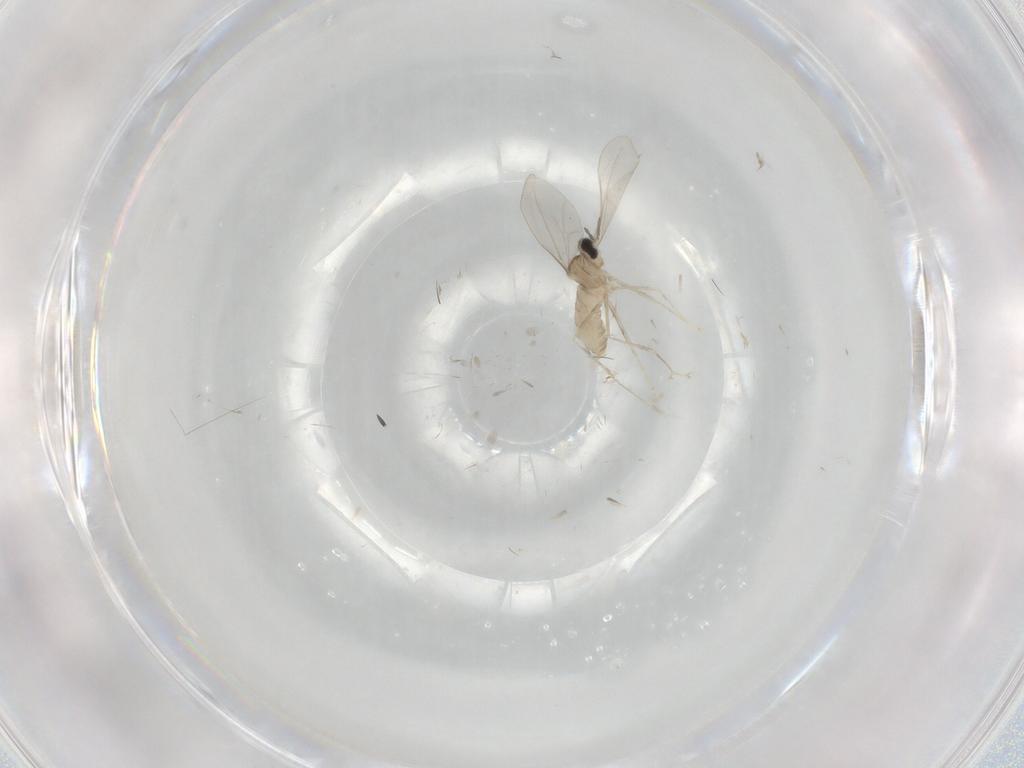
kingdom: Animalia
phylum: Arthropoda
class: Insecta
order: Diptera
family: Cecidomyiidae
